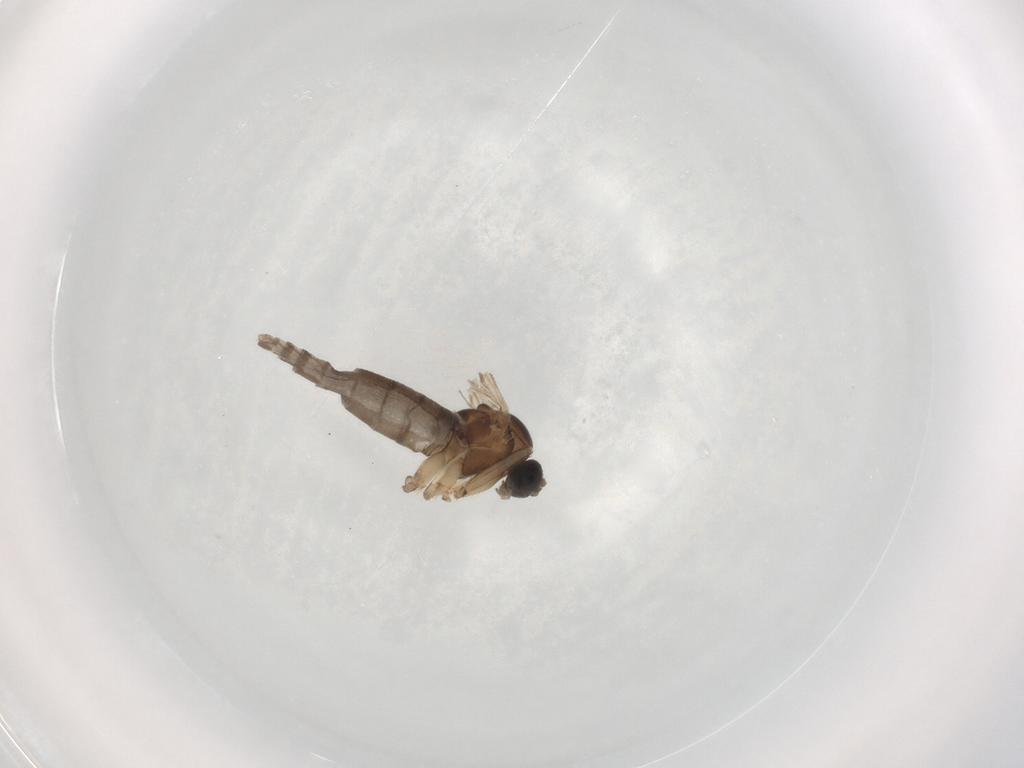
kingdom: Animalia
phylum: Arthropoda
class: Insecta
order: Diptera
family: Sciaridae
